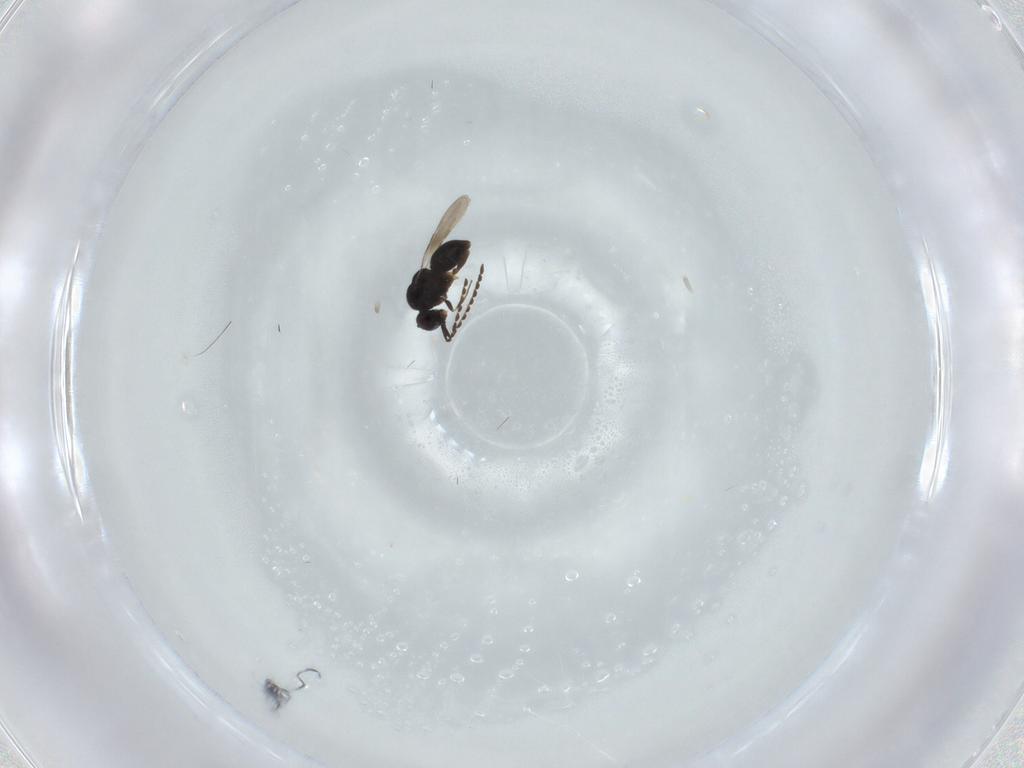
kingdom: Animalia
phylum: Arthropoda
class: Insecta
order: Hymenoptera
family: Ceraphronidae
